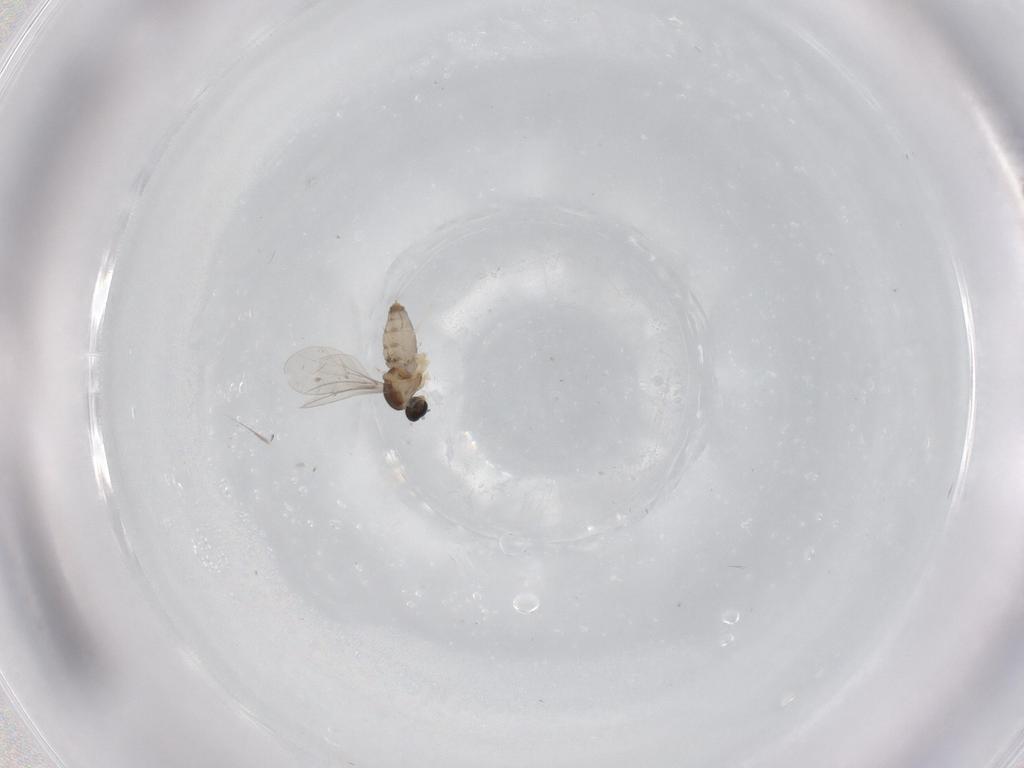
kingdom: Animalia
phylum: Arthropoda
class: Insecta
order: Diptera
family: Cecidomyiidae
